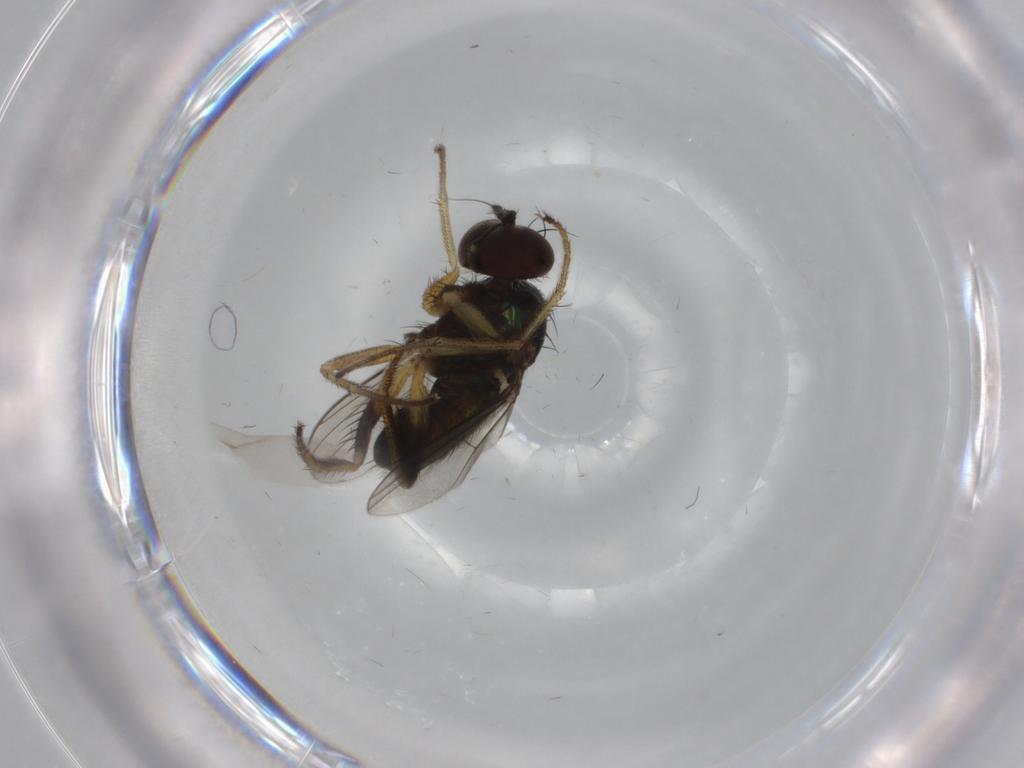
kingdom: Animalia
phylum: Arthropoda
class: Insecta
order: Diptera
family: Dolichopodidae
